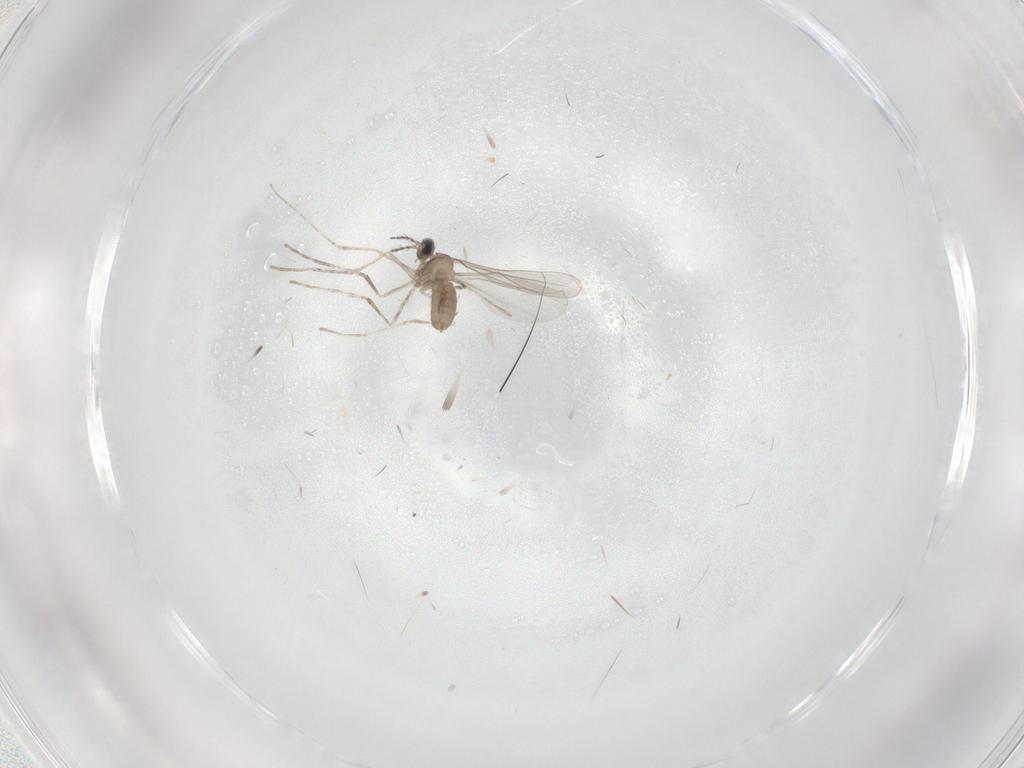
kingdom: Animalia
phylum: Arthropoda
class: Insecta
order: Diptera
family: Cecidomyiidae
